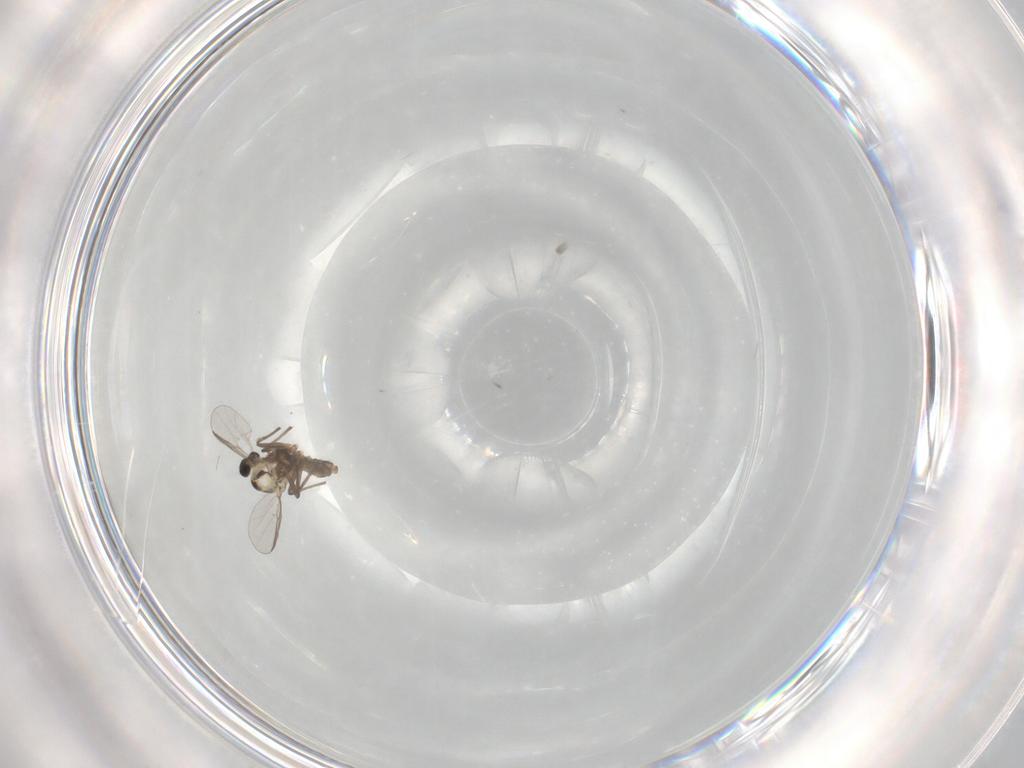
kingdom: Animalia
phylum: Arthropoda
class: Insecta
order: Diptera
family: Chironomidae
